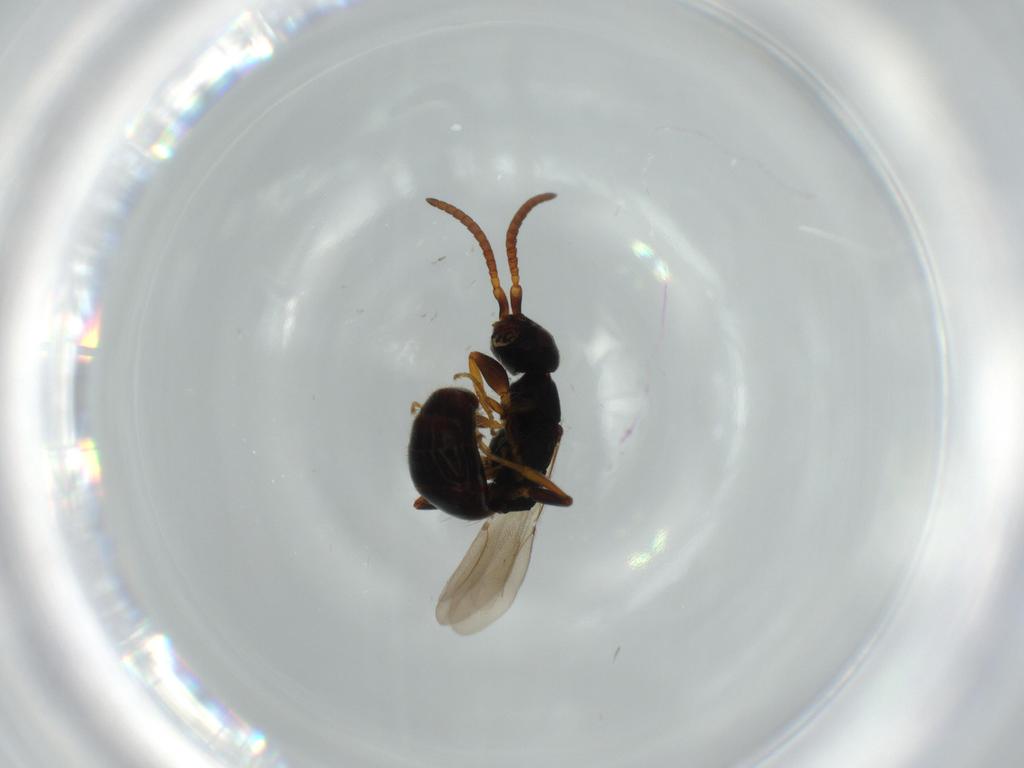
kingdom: Animalia
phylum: Arthropoda
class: Insecta
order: Hymenoptera
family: Bethylidae
